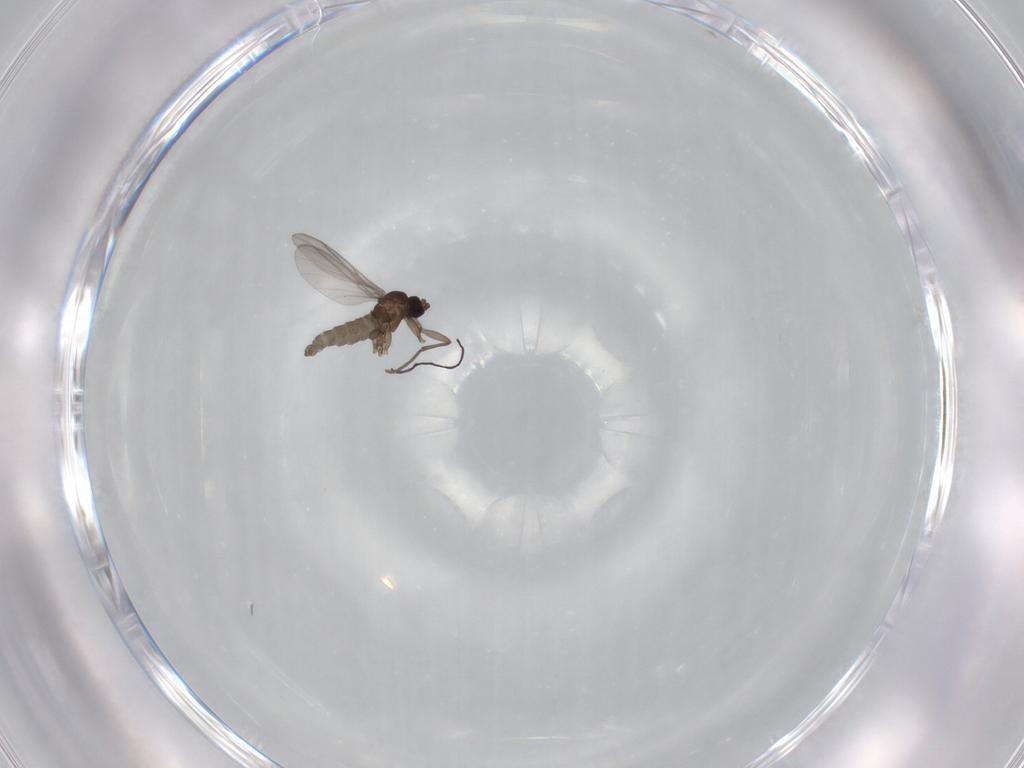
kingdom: Animalia
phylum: Arthropoda
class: Insecta
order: Diptera
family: Sciaridae
